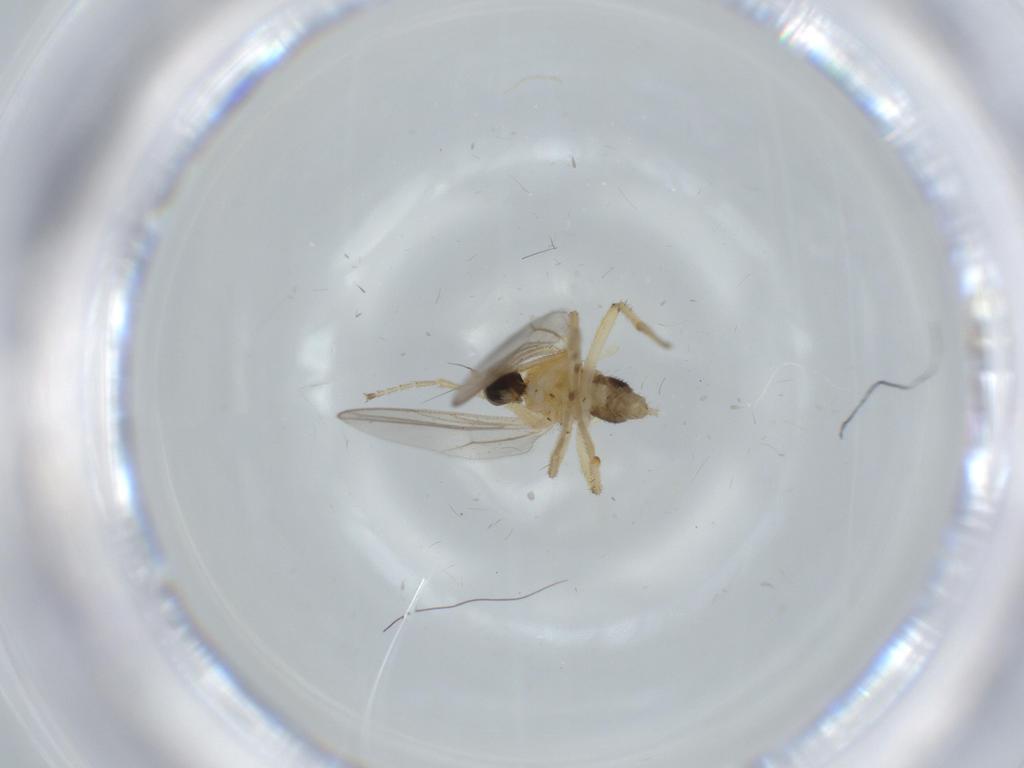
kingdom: Animalia
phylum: Arthropoda
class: Insecta
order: Diptera
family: Hybotidae
